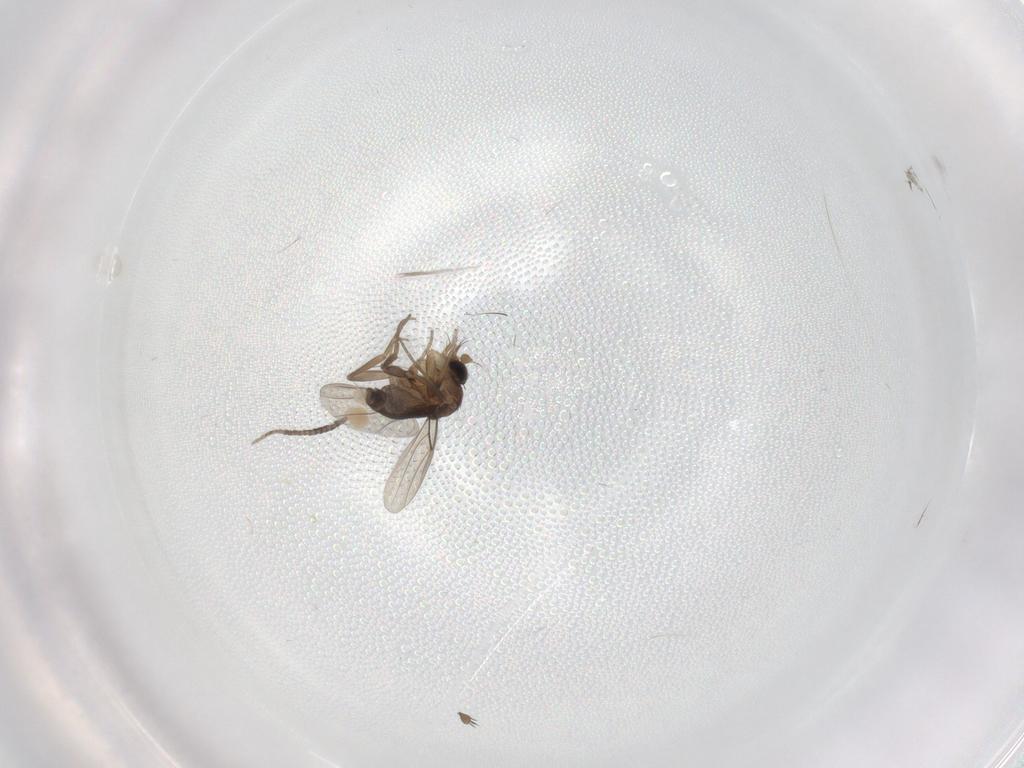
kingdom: Animalia
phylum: Arthropoda
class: Insecta
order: Diptera
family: Phoridae
